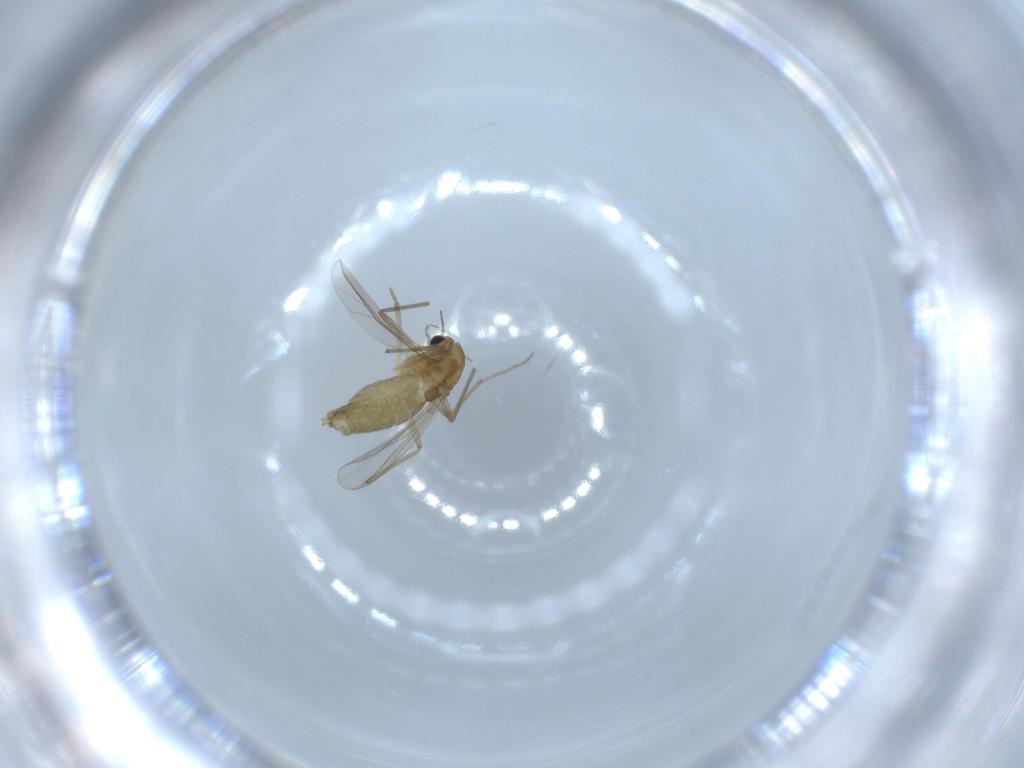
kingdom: Animalia
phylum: Arthropoda
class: Insecta
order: Diptera
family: Chironomidae
